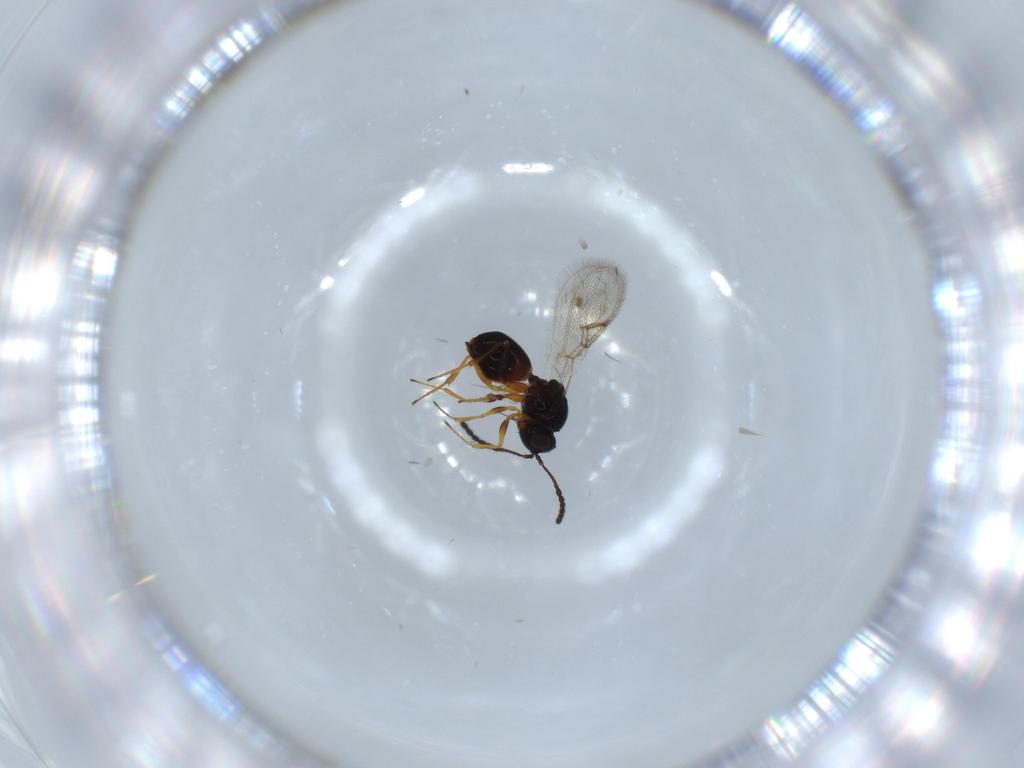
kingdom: Animalia
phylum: Arthropoda
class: Insecta
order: Hymenoptera
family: Figitidae
